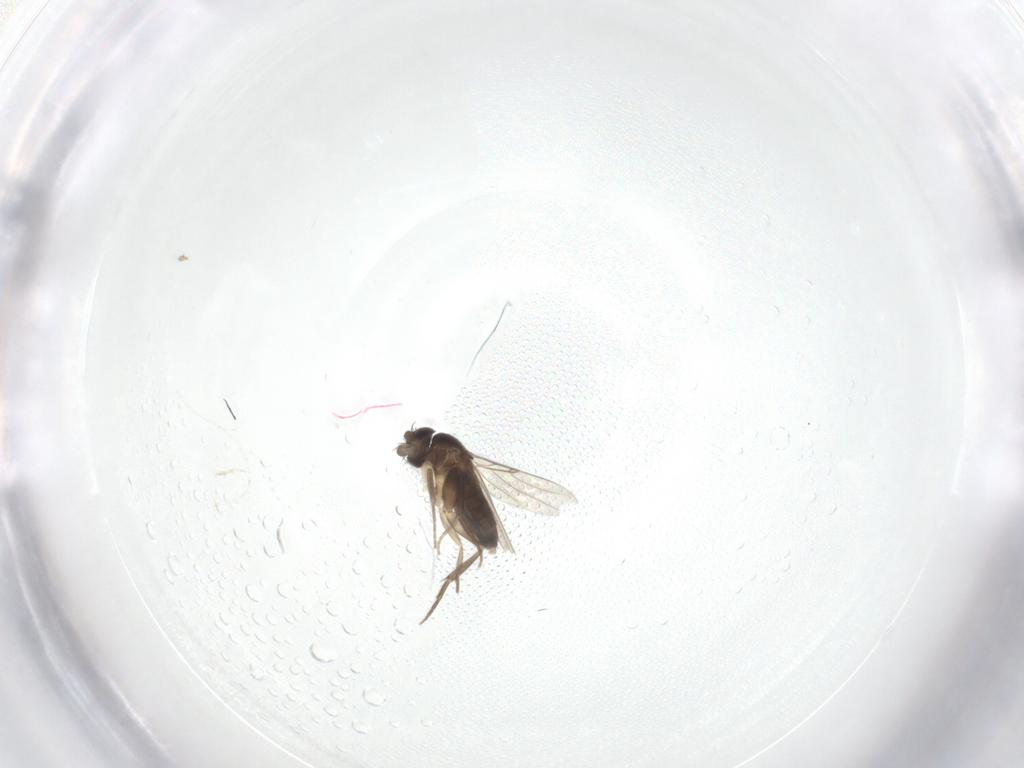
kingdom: Animalia
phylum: Arthropoda
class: Insecta
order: Diptera
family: Phoridae
